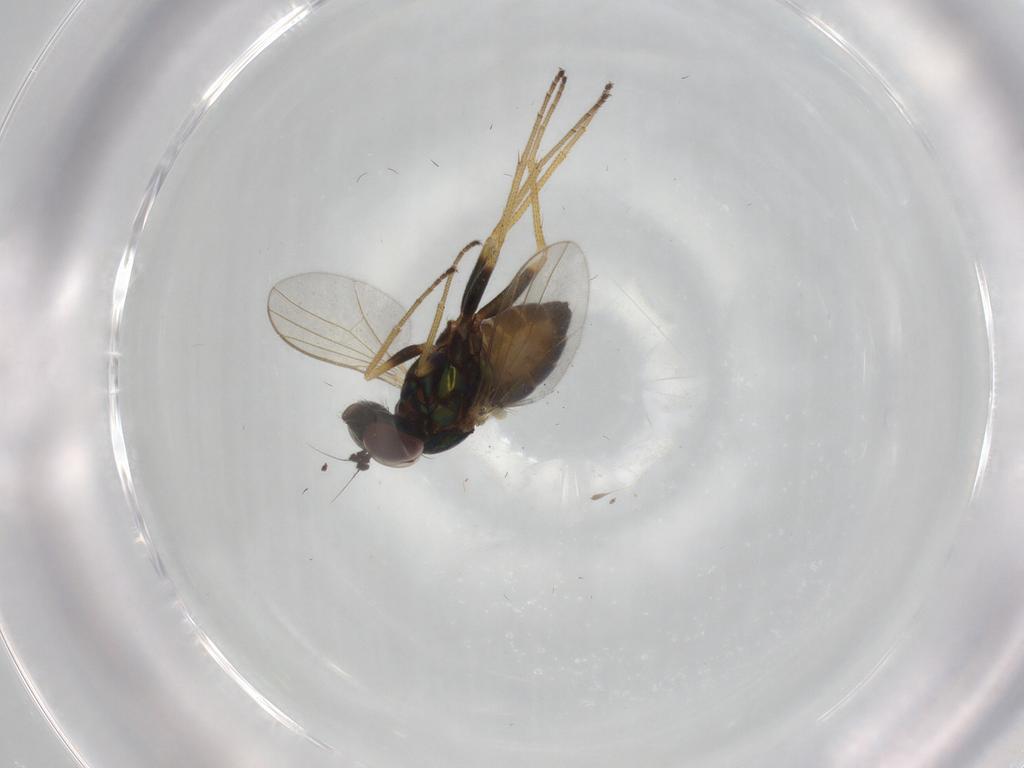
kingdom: Animalia
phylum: Arthropoda
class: Insecta
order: Diptera
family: Dolichopodidae
